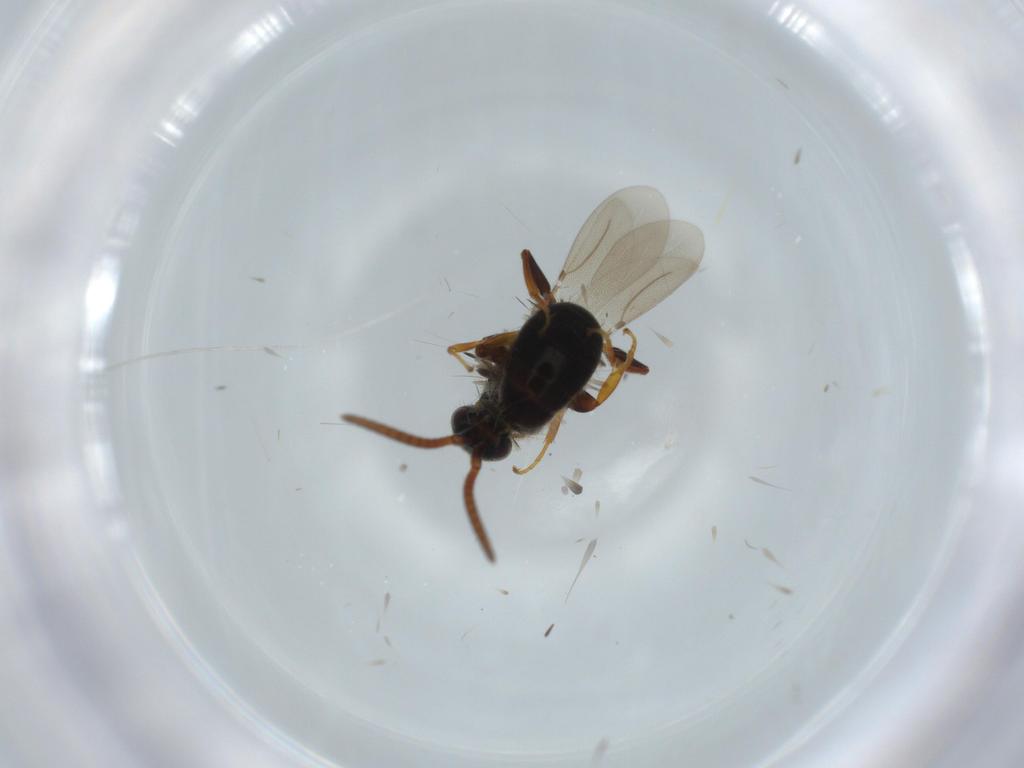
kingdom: Animalia
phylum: Arthropoda
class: Insecta
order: Hymenoptera
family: Bethylidae
